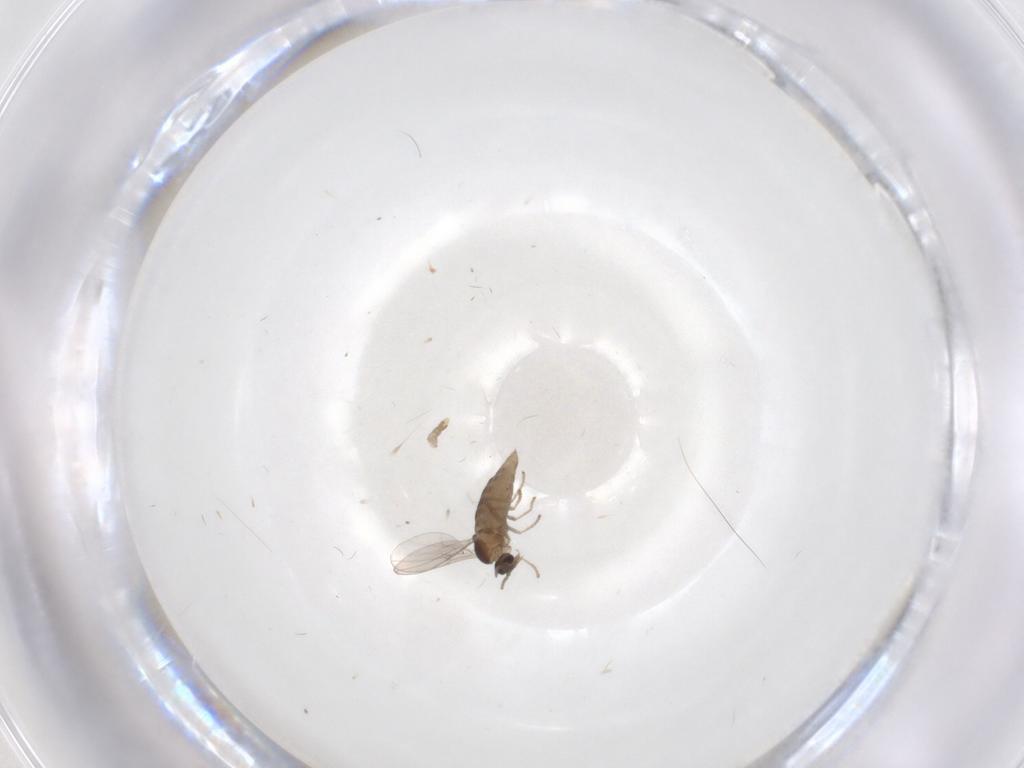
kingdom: Animalia
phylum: Arthropoda
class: Insecta
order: Diptera
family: Cecidomyiidae
